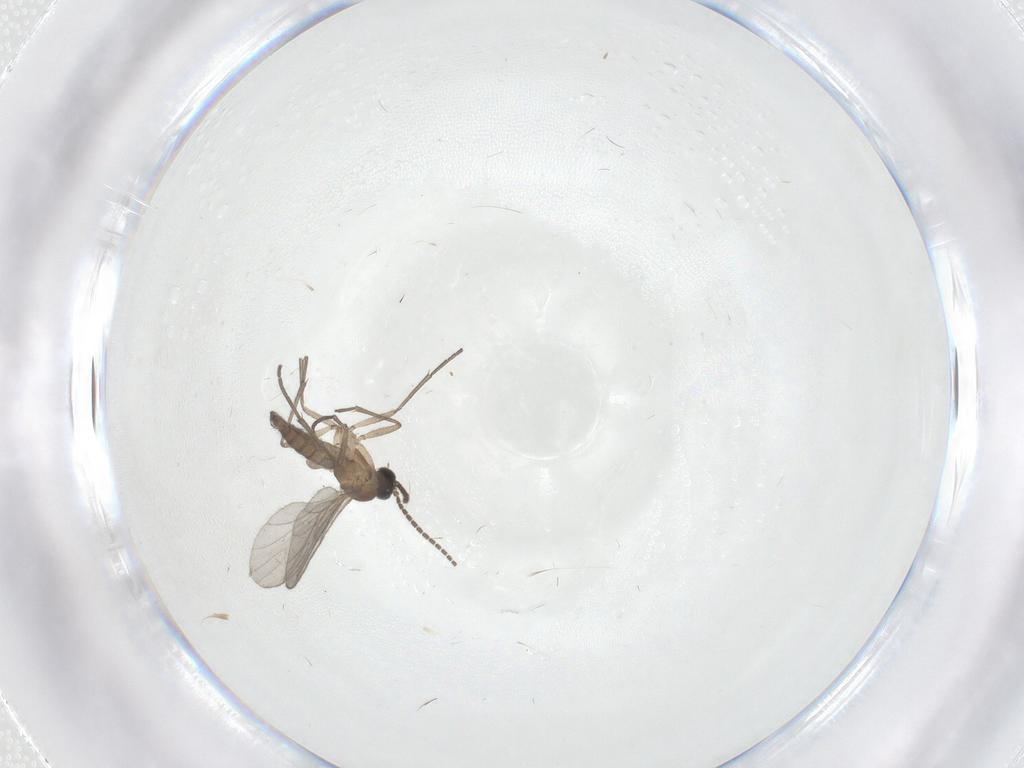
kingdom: Animalia
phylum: Arthropoda
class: Insecta
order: Diptera
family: Sciaridae
